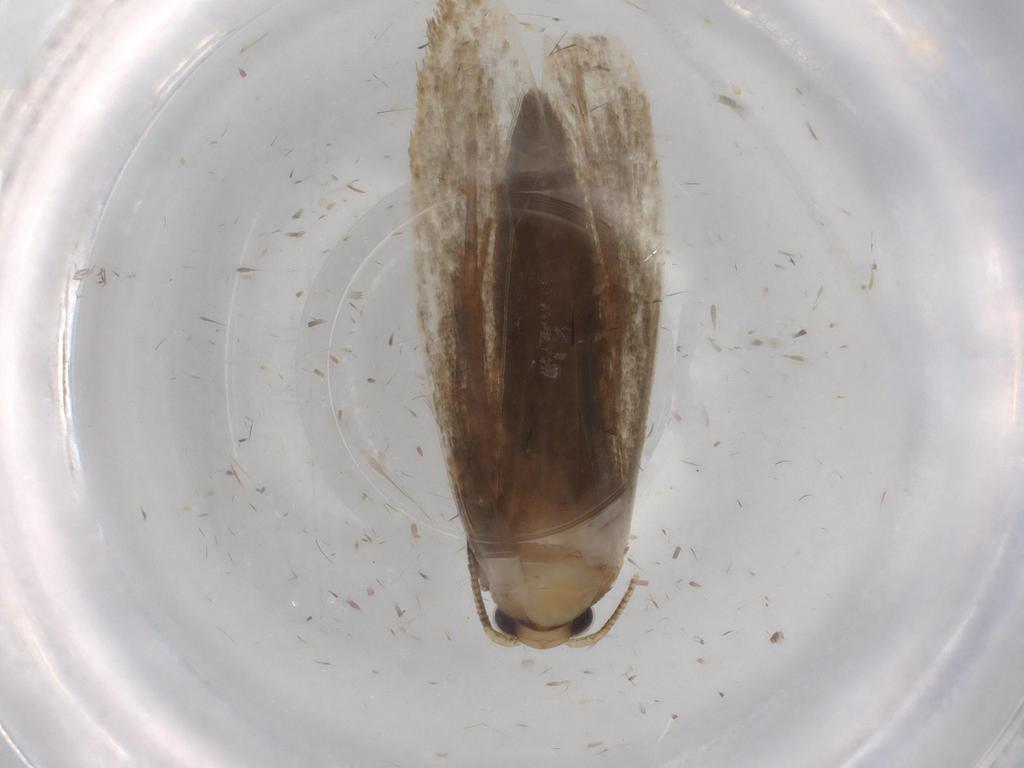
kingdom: Animalia
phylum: Arthropoda
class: Insecta
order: Lepidoptera
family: Tineidae
